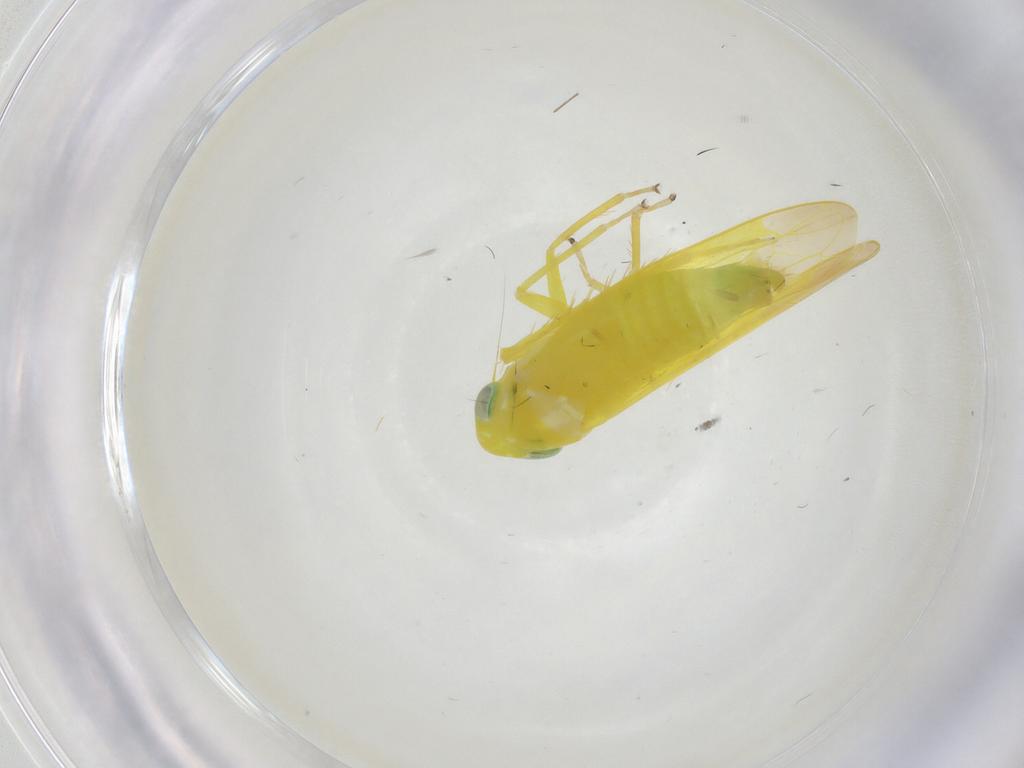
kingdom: Animalia
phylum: Arthropoda
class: Insecta
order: Hemiptera
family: Cicadellidae
